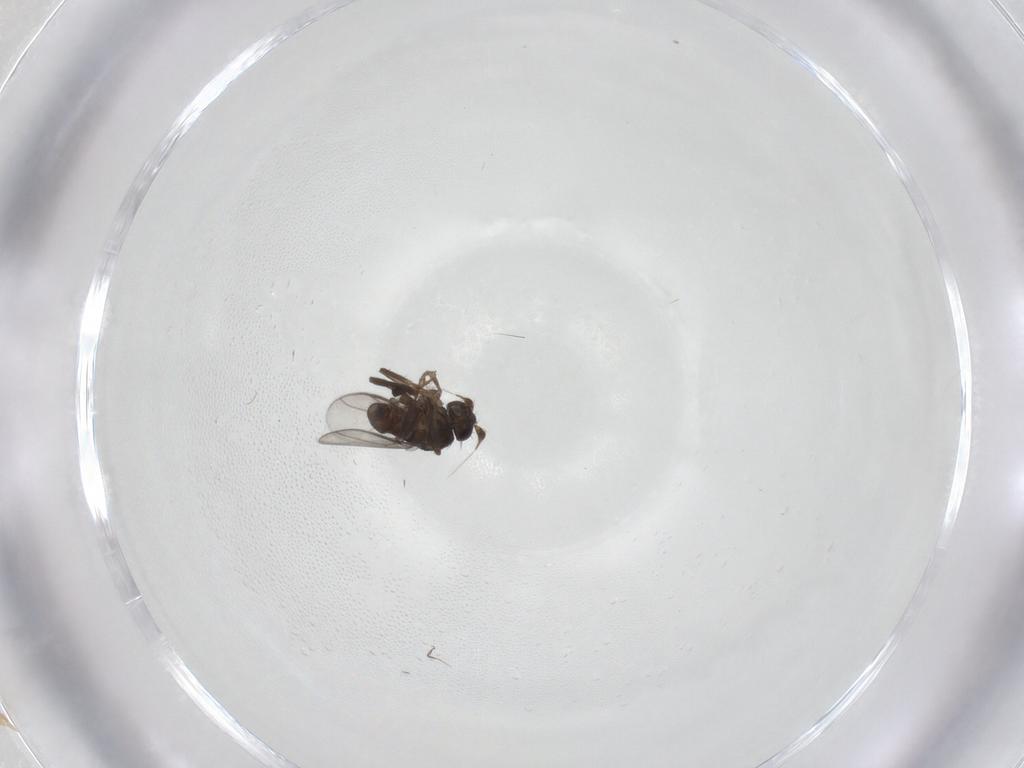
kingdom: Animalia
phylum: Arthropoda
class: Insecta
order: Diptera
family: Cecidomyiidae
